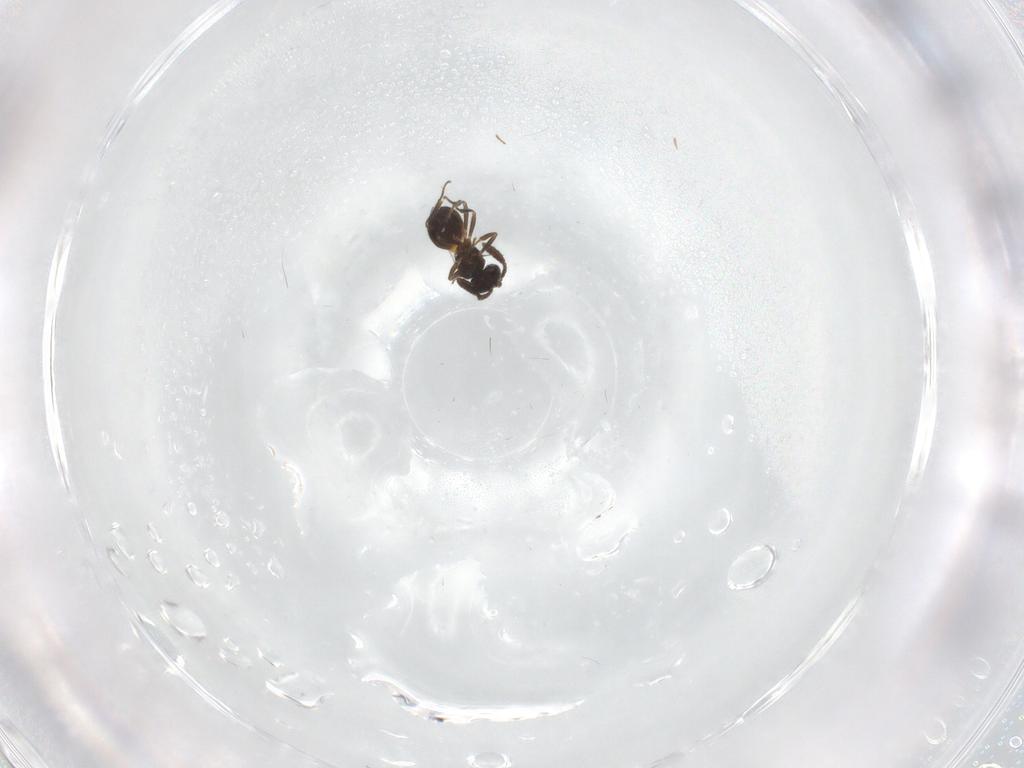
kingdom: Animalia
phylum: Arthropoda
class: Insecta
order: Hymenoptera
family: Scelionidae
